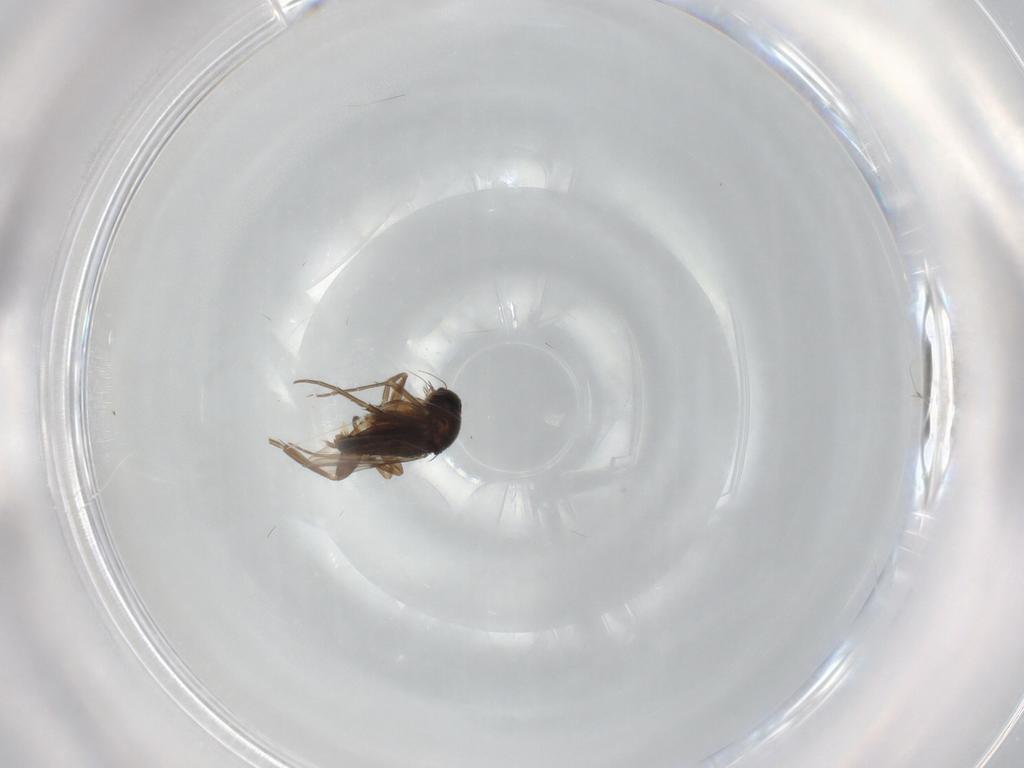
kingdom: Animalia
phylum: Arthropoda
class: Insecta
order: Diptera
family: Phoridae
